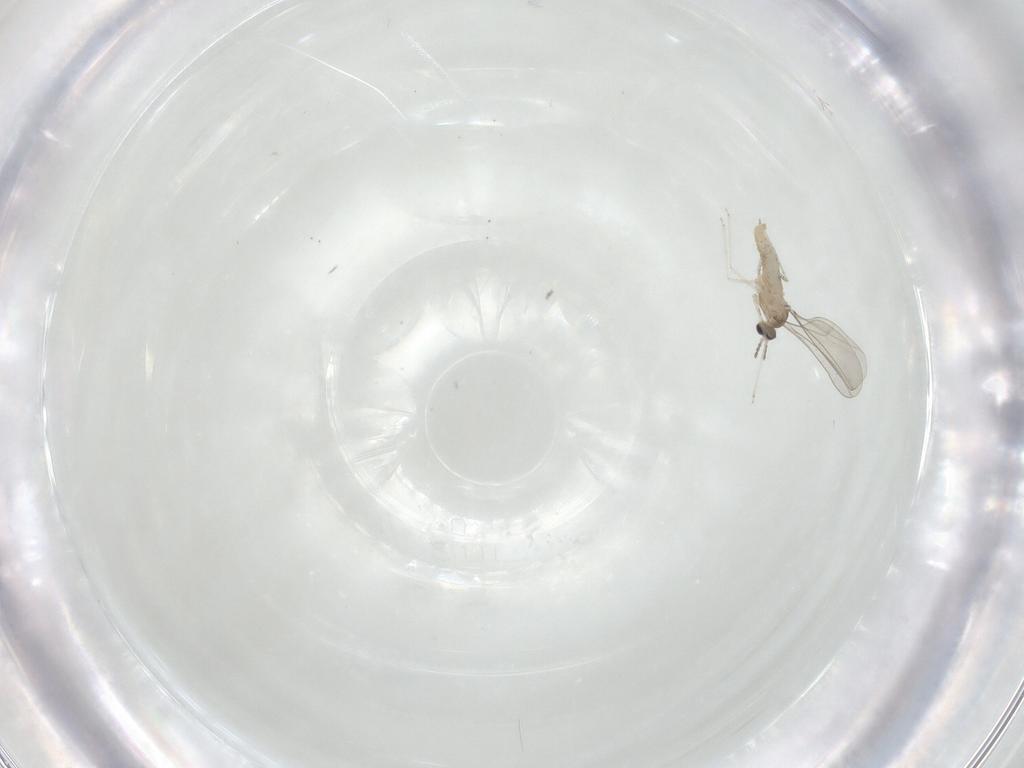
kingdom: Animalia
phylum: Arthropoda
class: Insecta
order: Diptera
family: Cecidomyiidae
